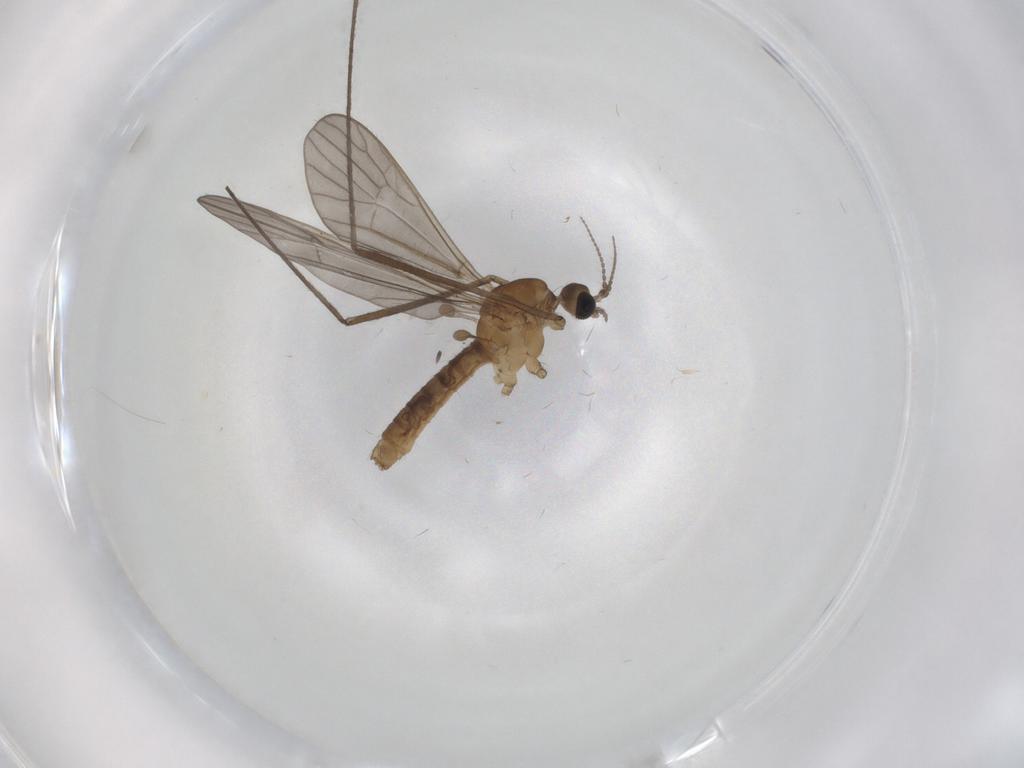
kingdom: Animalia
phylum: Arthropoda
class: Insecta
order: Diptera
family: Limoniidae
